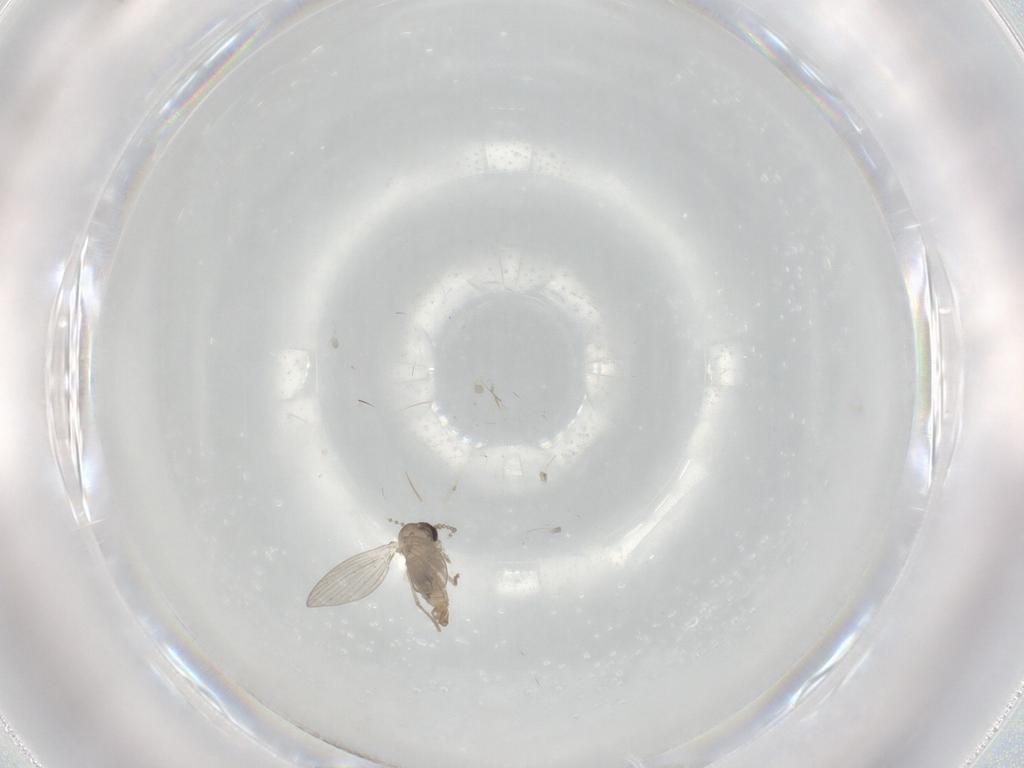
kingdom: Animalia
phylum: Arthropoda
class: Insecta
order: Diptera
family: Psychodidae
